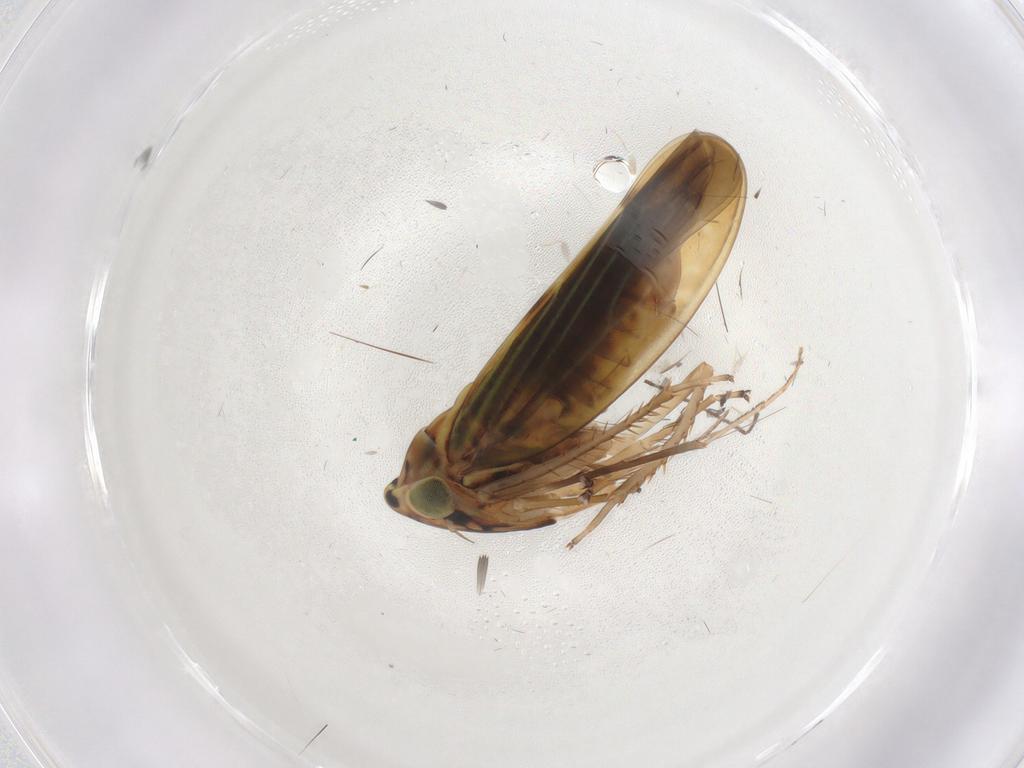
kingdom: Animalia
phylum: Arthropoda
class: Insecta
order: Hemiptera
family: Cicadellidae
